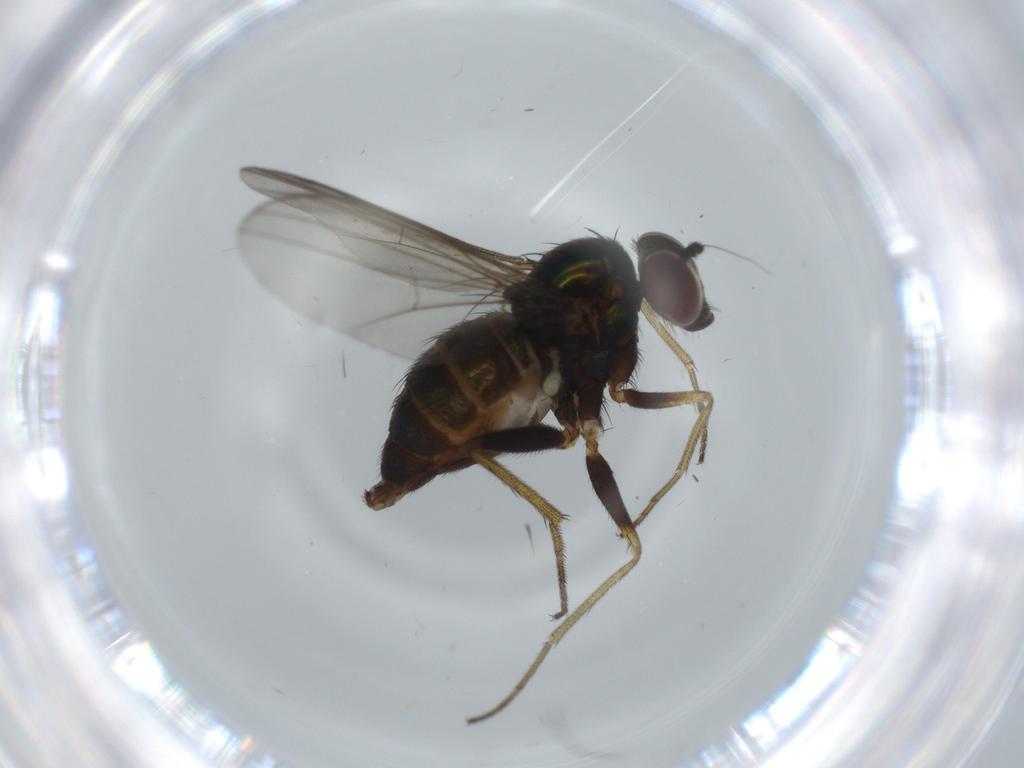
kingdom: Animalia
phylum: Arthropoda
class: Insecta
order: Diptera
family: Dolichopodidae
